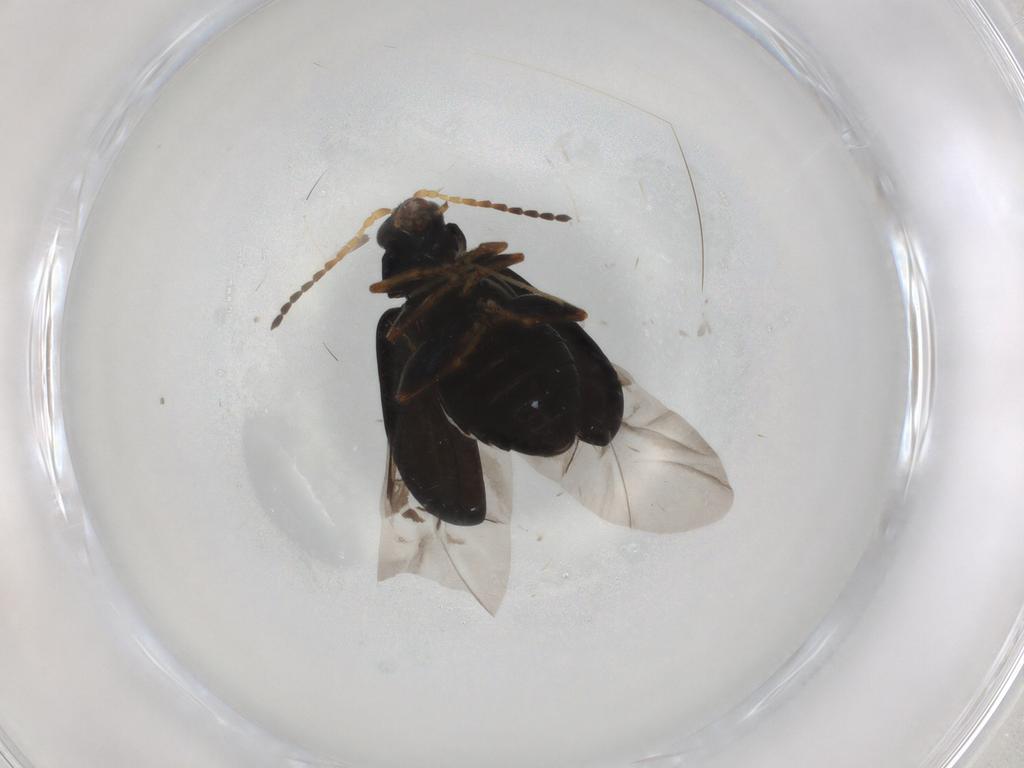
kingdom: Animalia
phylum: Arthropoda
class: Insecta
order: Coleoptera
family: Chrysomelidae
